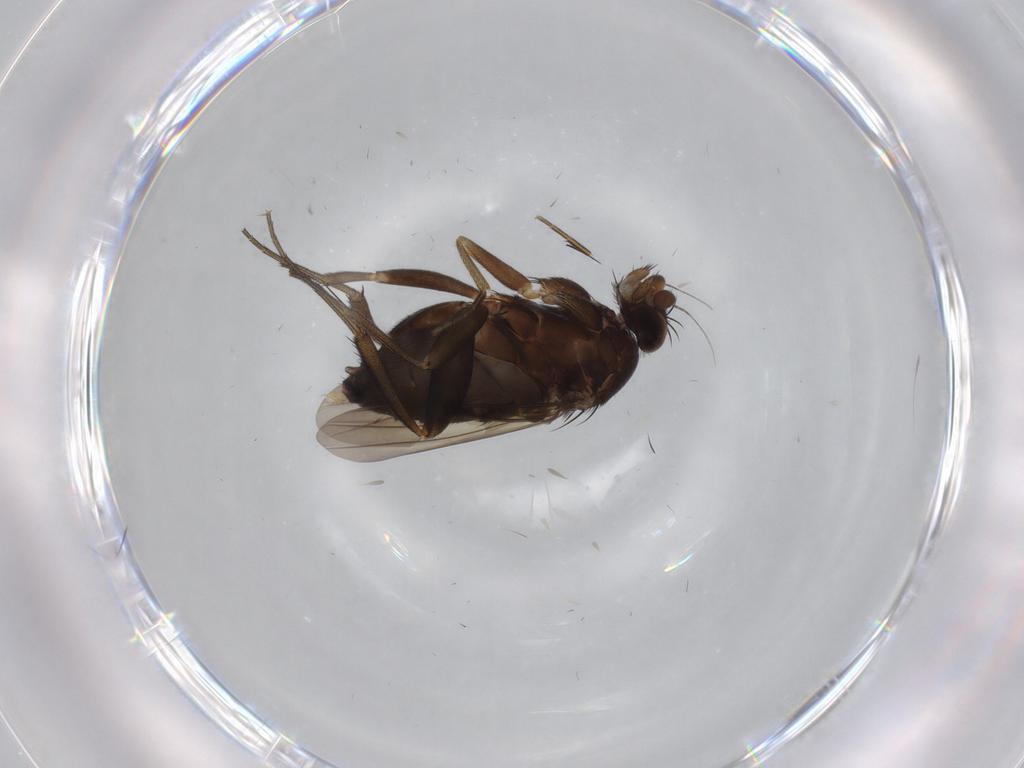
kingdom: Animalia
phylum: Arthropoda
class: Insecta
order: Diptera
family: Phoridae
